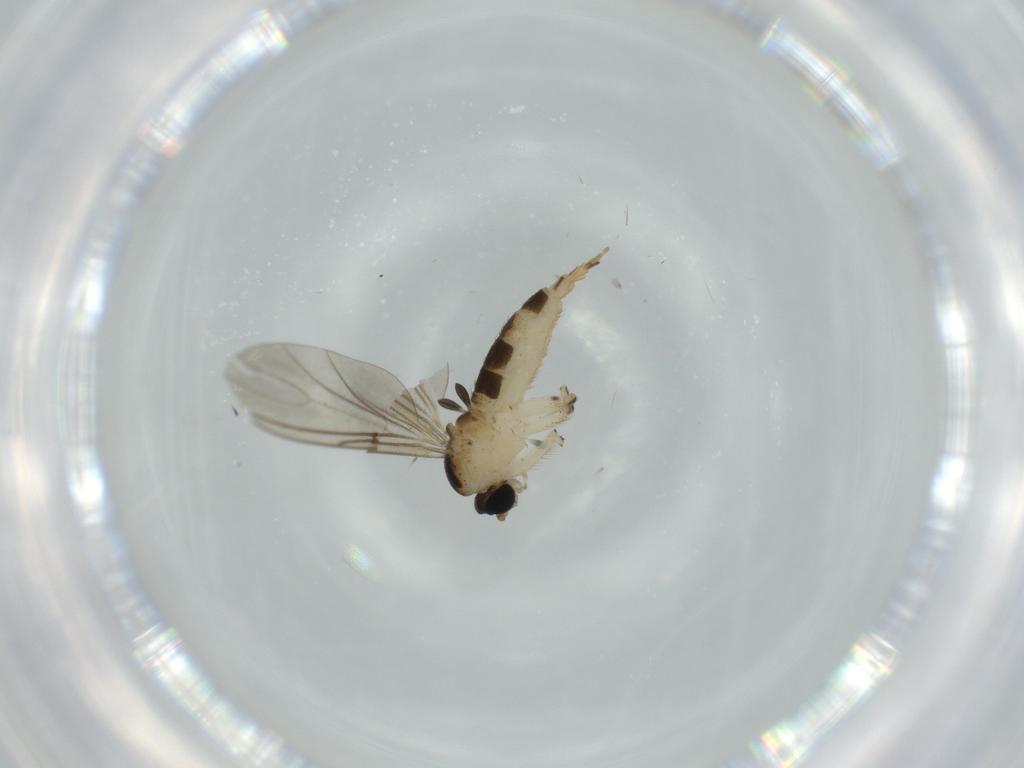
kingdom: Animalia
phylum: Arthropoda
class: Insecta
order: Diptera
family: Sciaridae
